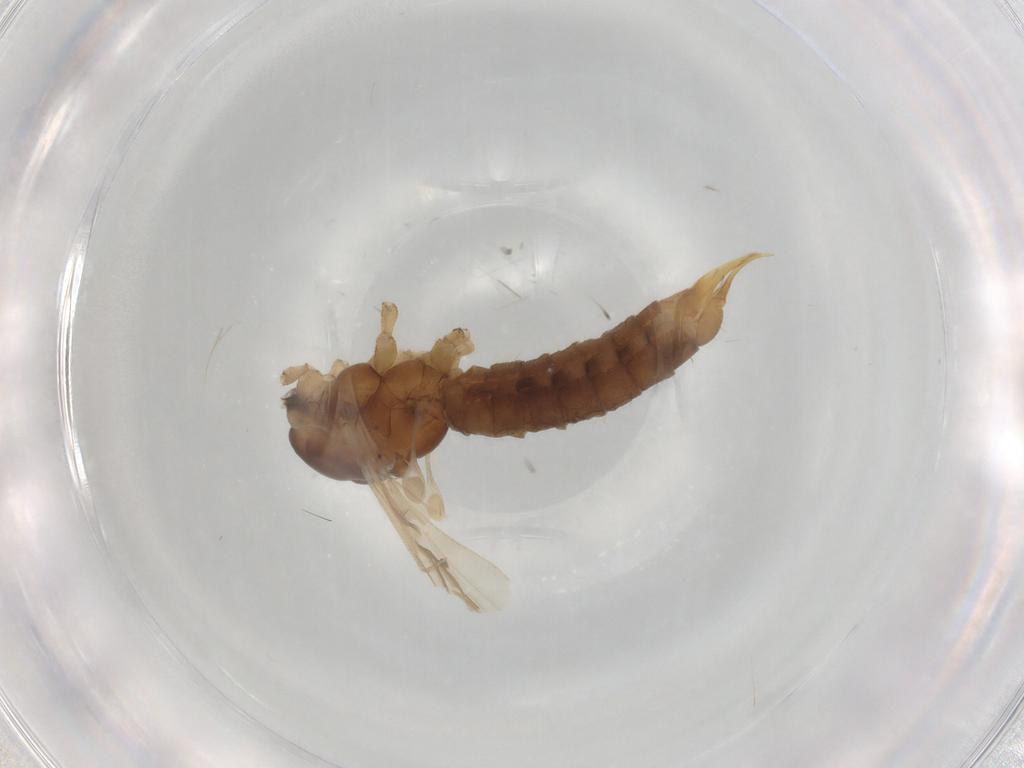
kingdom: Animalia
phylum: Arthropoda
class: Insecta
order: Diptera
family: Limoniidae
